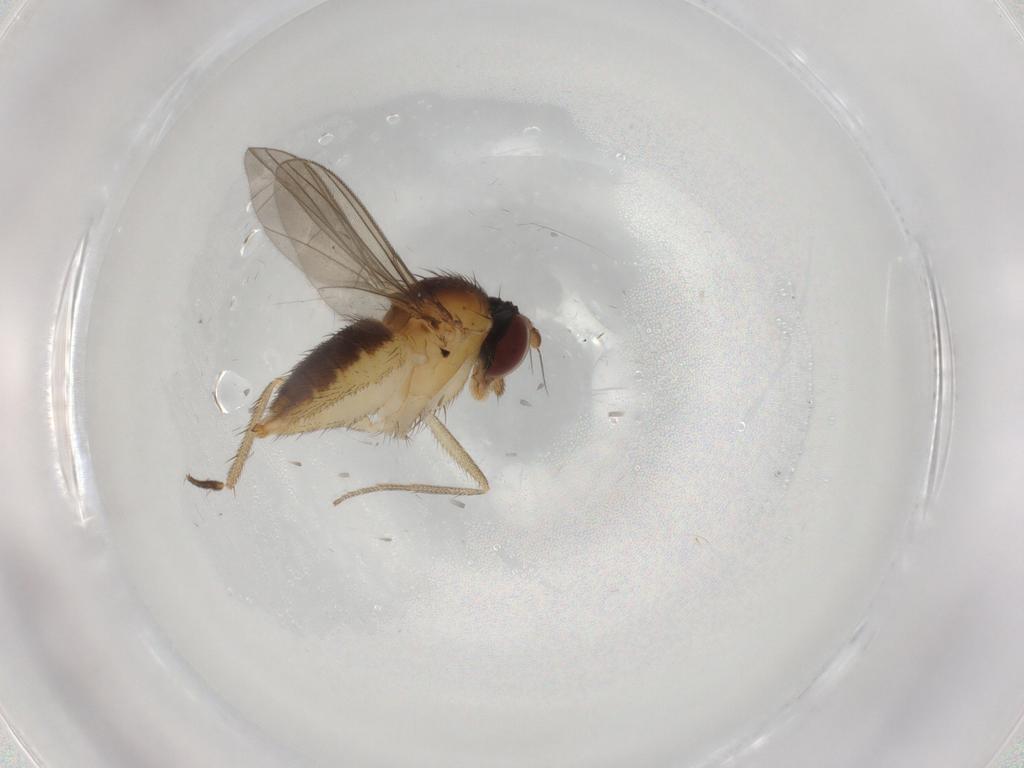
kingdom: Animalia
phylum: Arthropoda
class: Insecta
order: Diptera
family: Dolichopodidae
